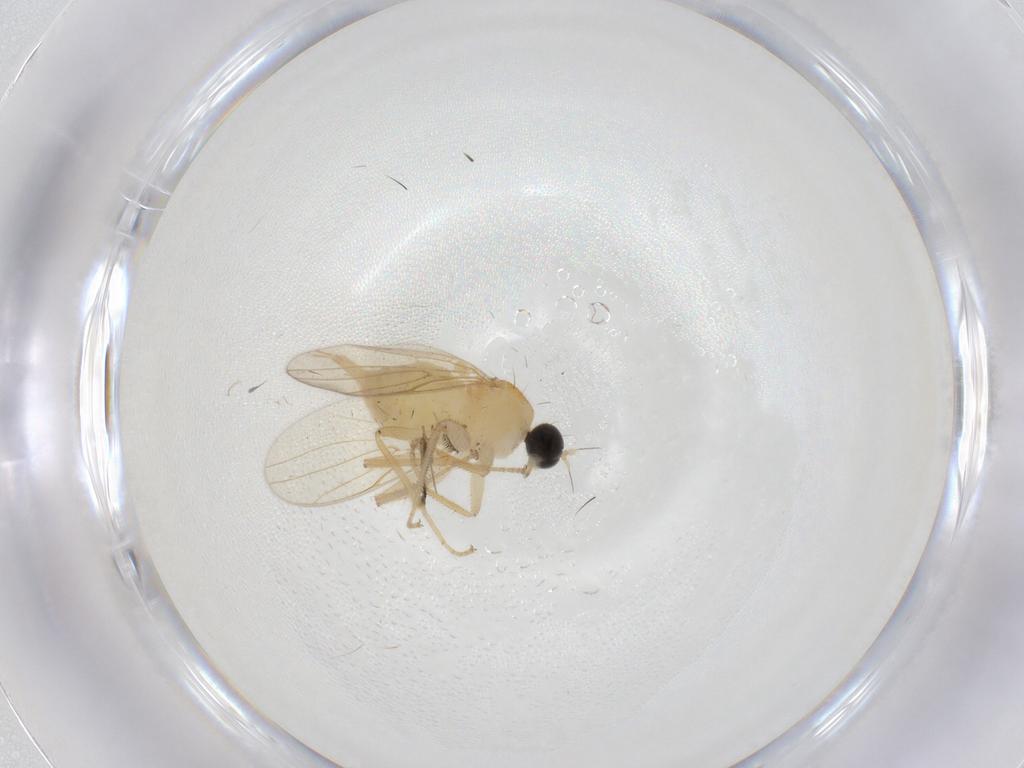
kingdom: Animalia
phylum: Arthropoda
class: Insecta
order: Diptera
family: Cecidomyiidae
